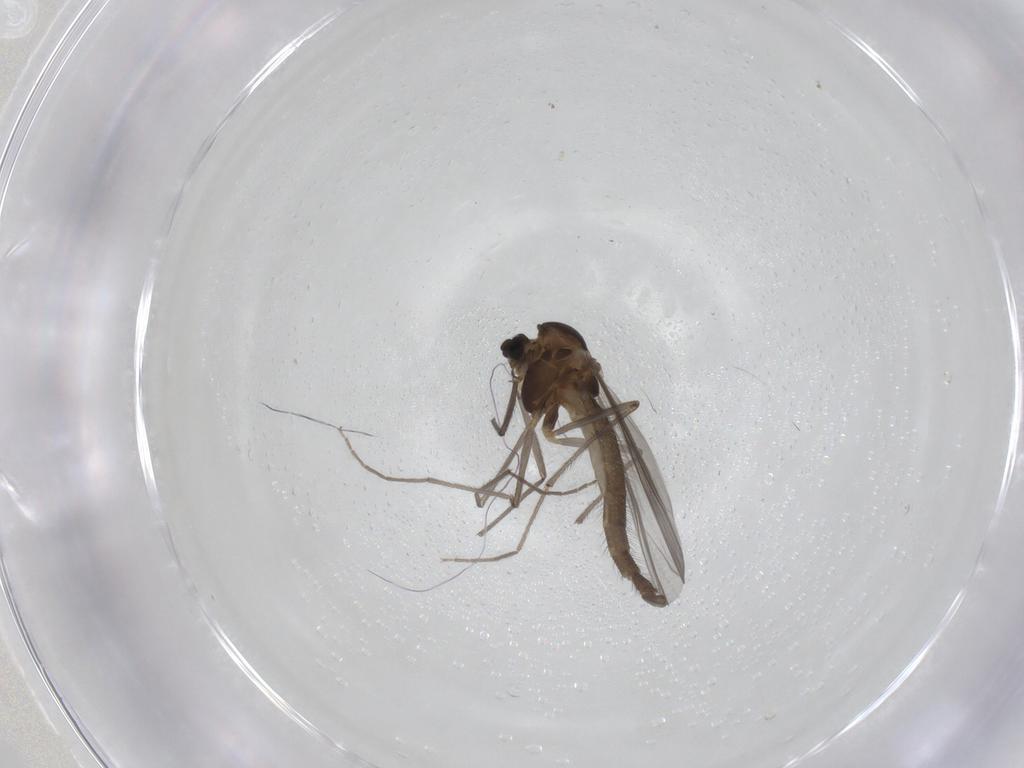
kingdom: Animalia
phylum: Arthropoda
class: Insecta
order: Diptera
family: Chironomidae
